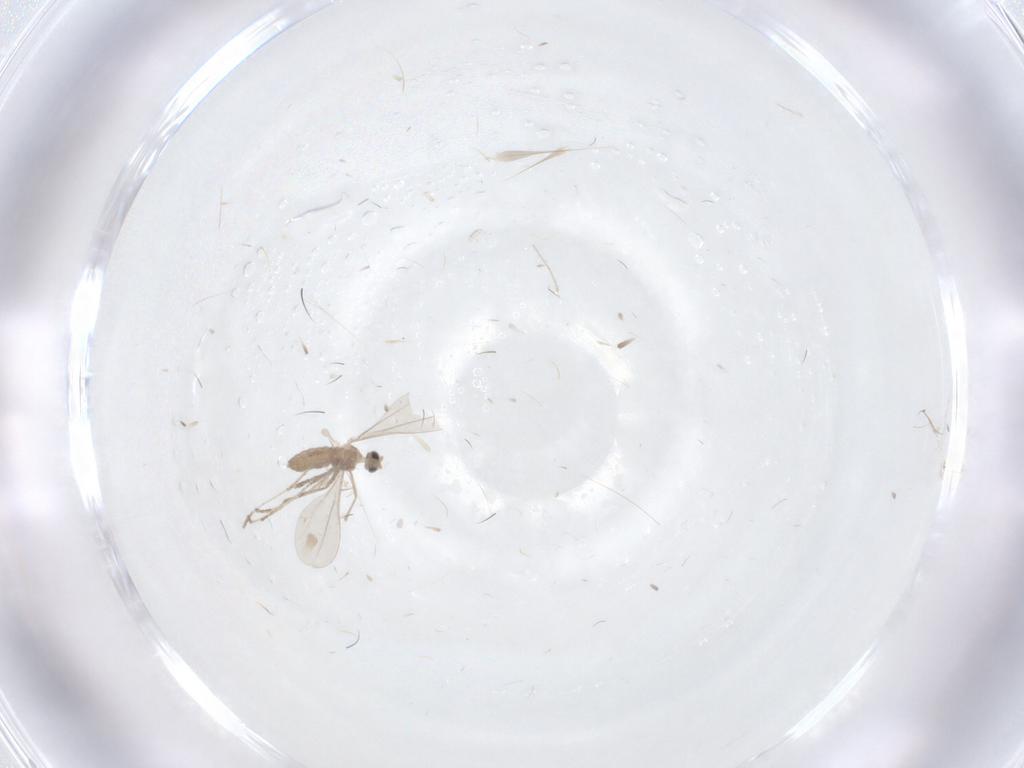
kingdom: Animalia
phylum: Arthropoda
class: Insecta
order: Diptera
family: Cecidomyiidae
